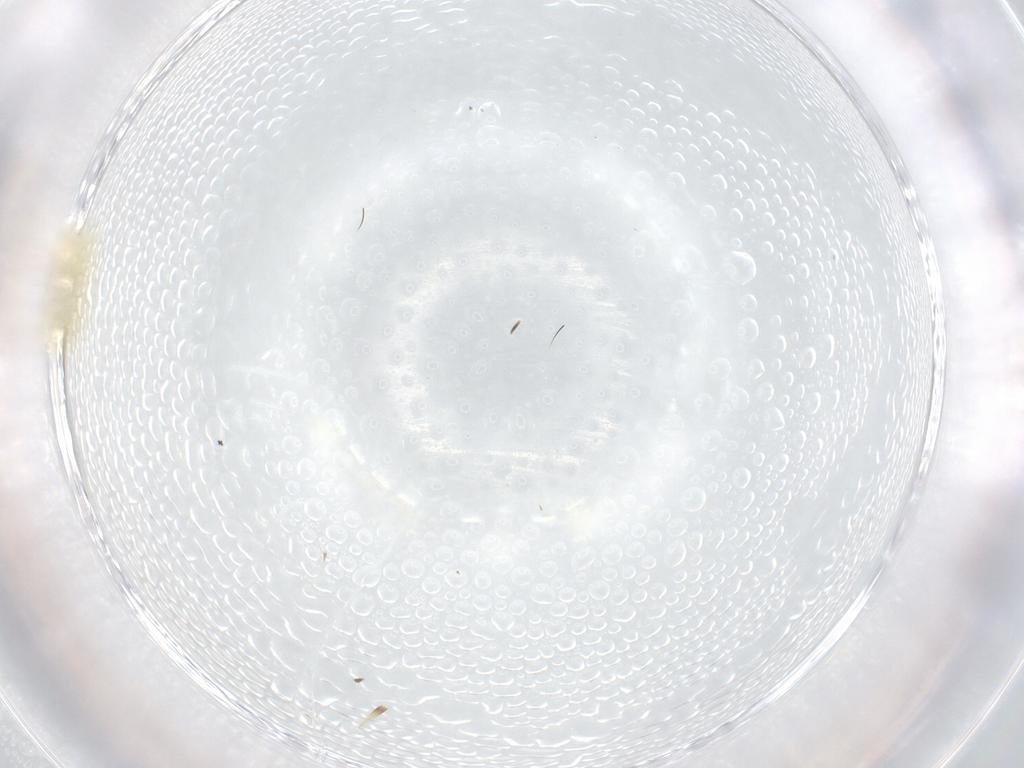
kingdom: Animalia
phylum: Arthropoda
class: Insecta
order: Hemiptera
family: Cicadellidae
